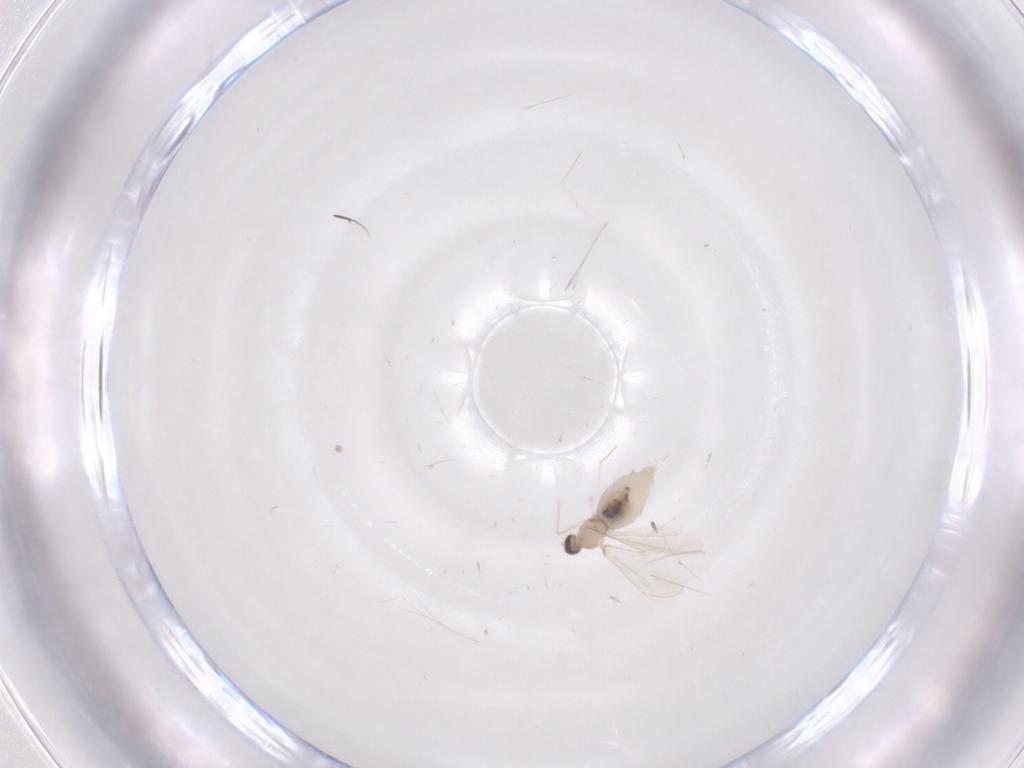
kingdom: Animalia
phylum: Arthropoda
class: Insecta
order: Diptera
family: Cecidomyiidae
